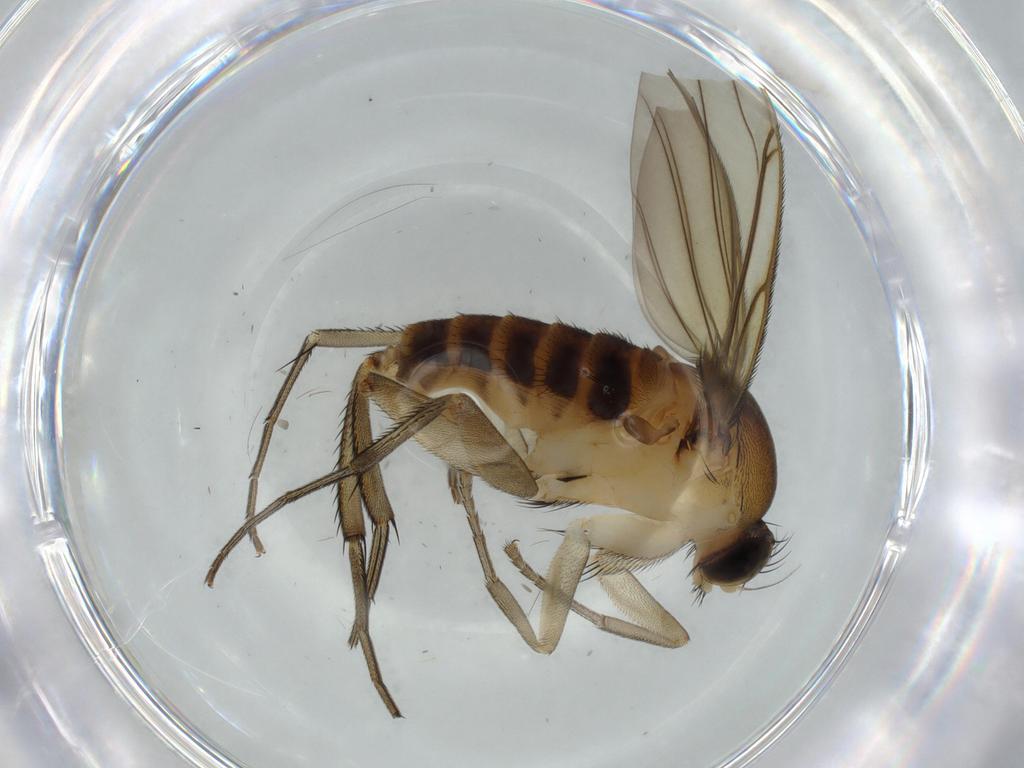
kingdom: Animalia
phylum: Arthropoda
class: Insecta
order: Diptera
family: Phoridae
